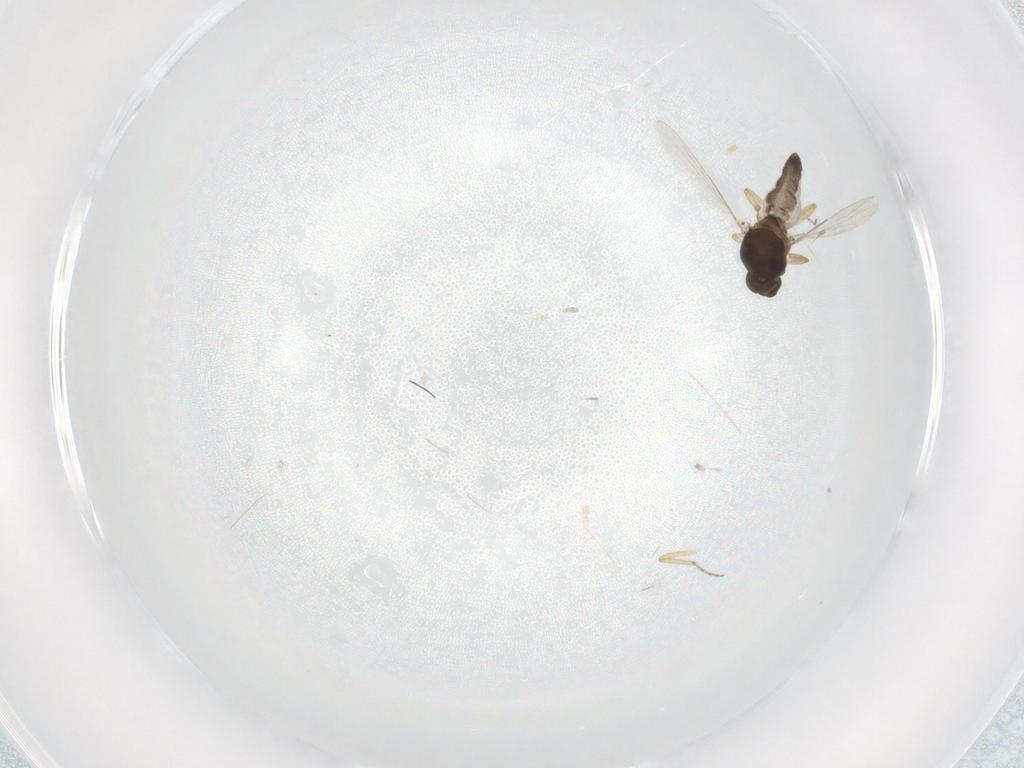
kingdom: Animalia
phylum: Arthropoda
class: Insecta
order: Diptera
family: Ceratopogonidae
